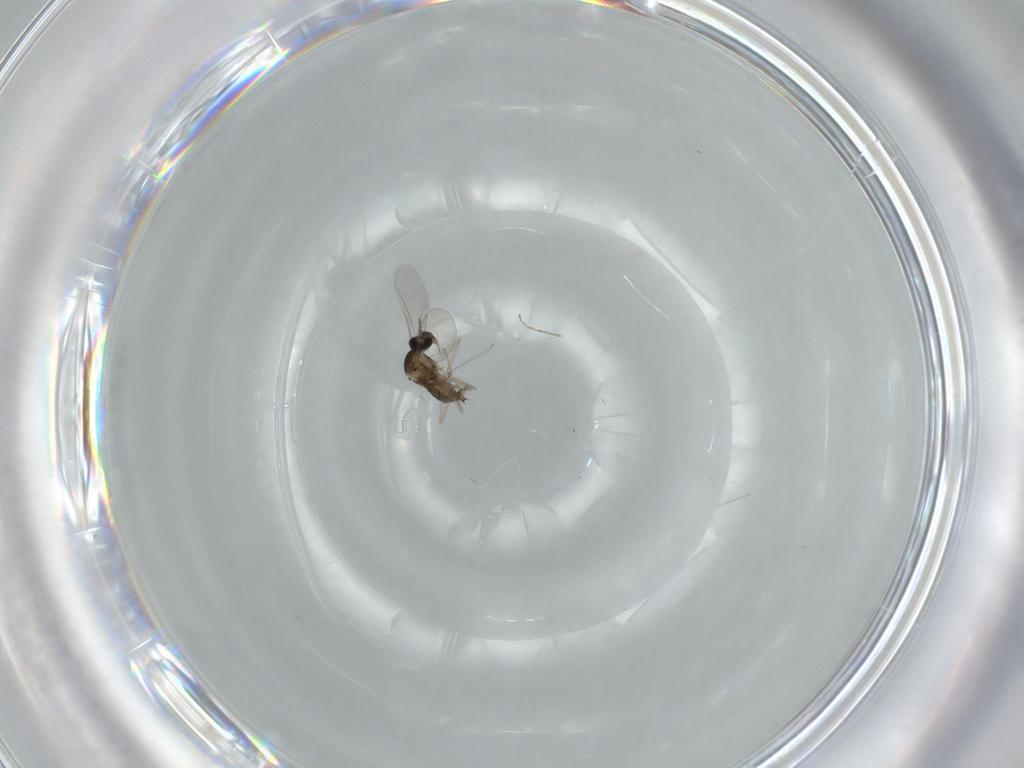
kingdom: Animalia
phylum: Arthropoda
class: Insecta
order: Diptera
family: Cecidomyiidae
